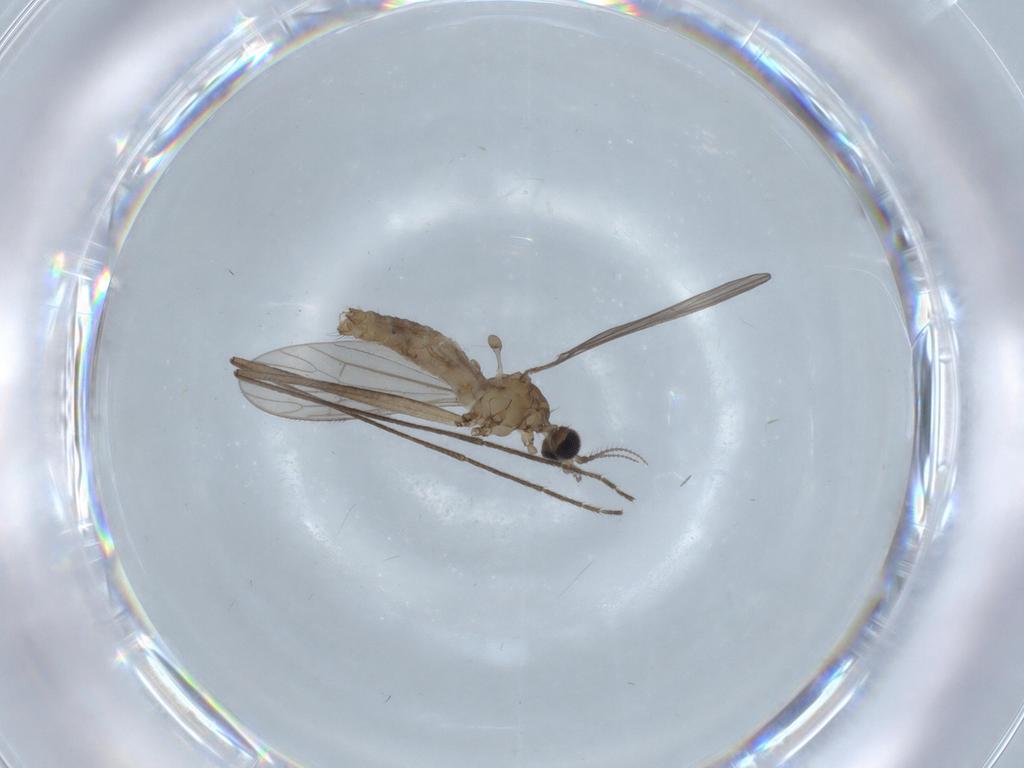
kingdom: Animalia
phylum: Arthropoda
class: Insecta
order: Diptera
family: Limoniidae
